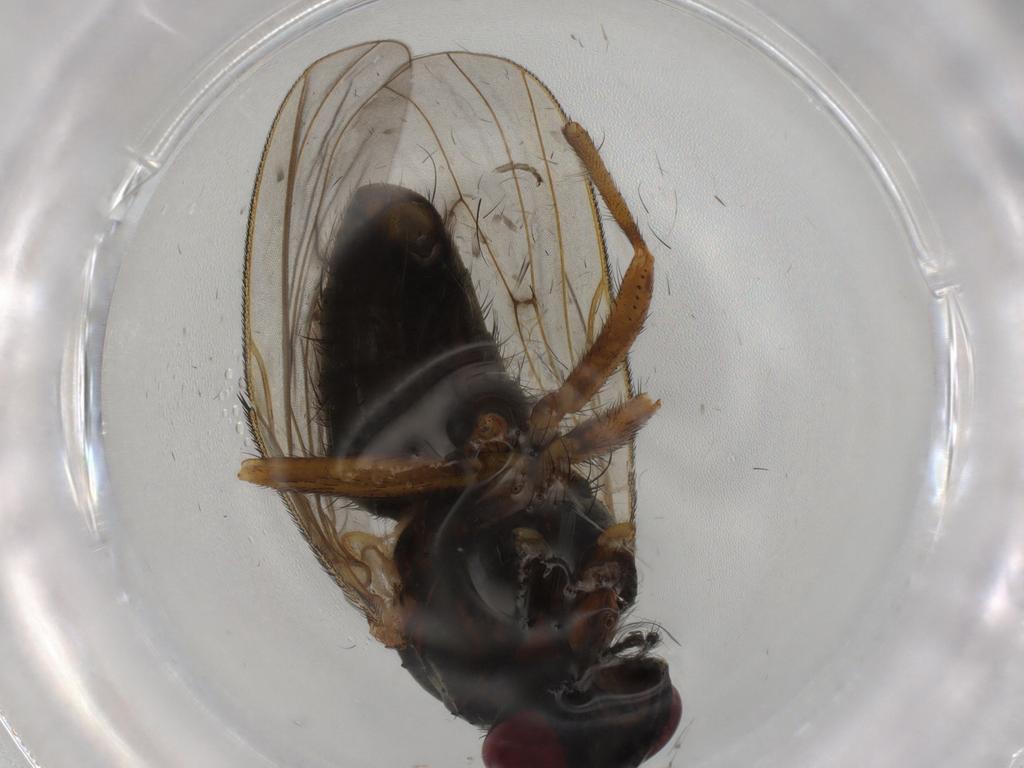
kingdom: Animalia
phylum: Arthropoda
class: Insecta
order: Diptera
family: Muscidae
